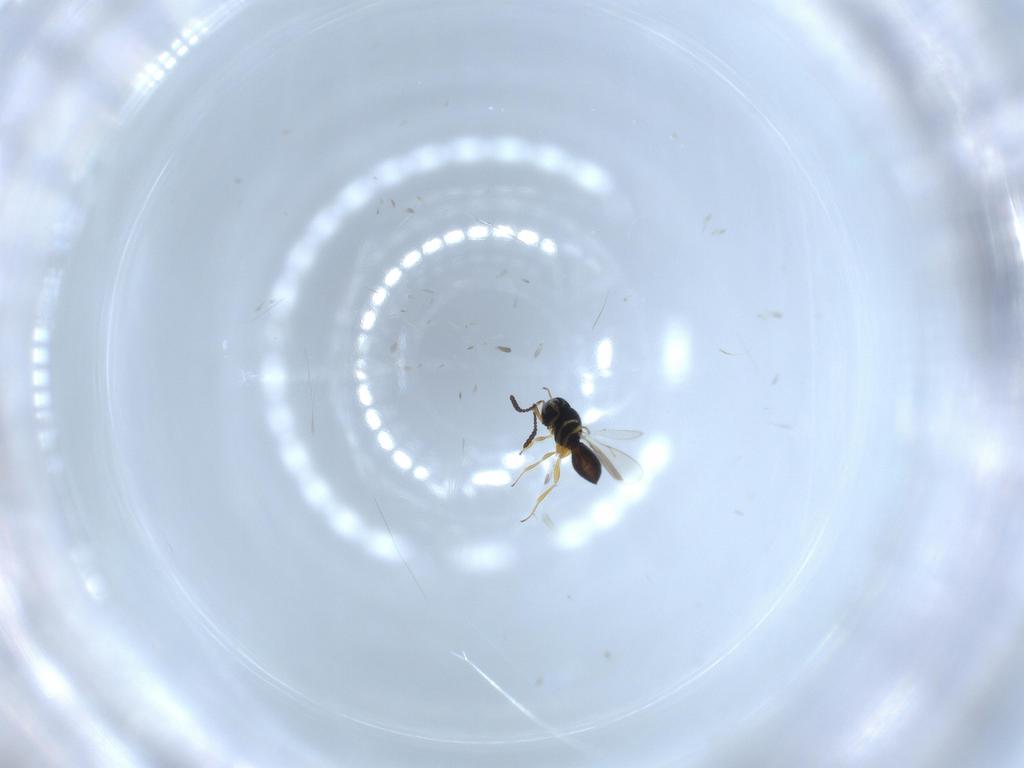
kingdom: Animalia
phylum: Arthropoda
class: Insecta
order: Hymenoptera
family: Scelionidae
